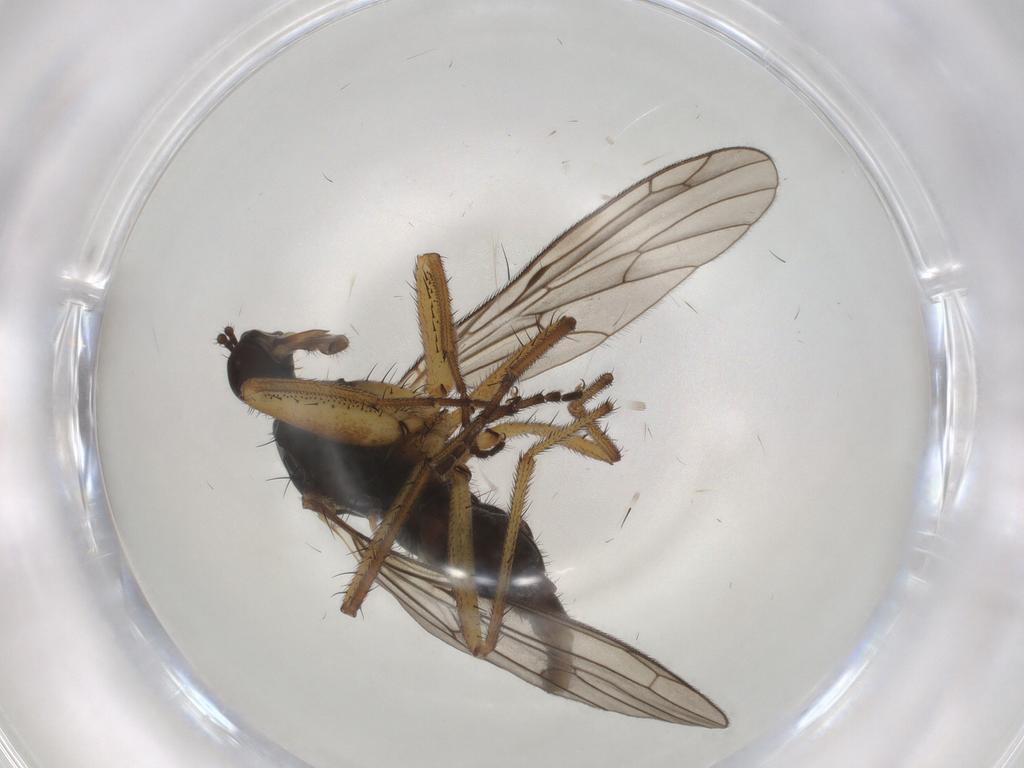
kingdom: Animalia
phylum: Arthropoda
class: Insecta
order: Diptera
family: Chironomidae
